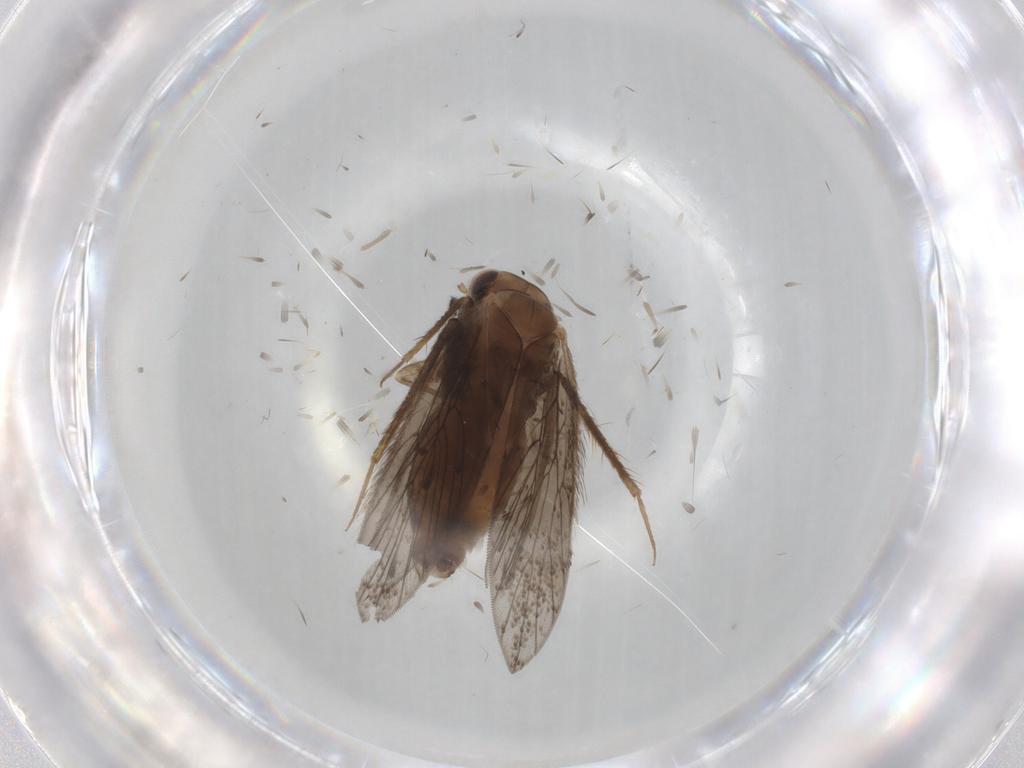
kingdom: Animalia
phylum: Arthropoda
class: Insecta
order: Psocodea
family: Lepidopsocidae
